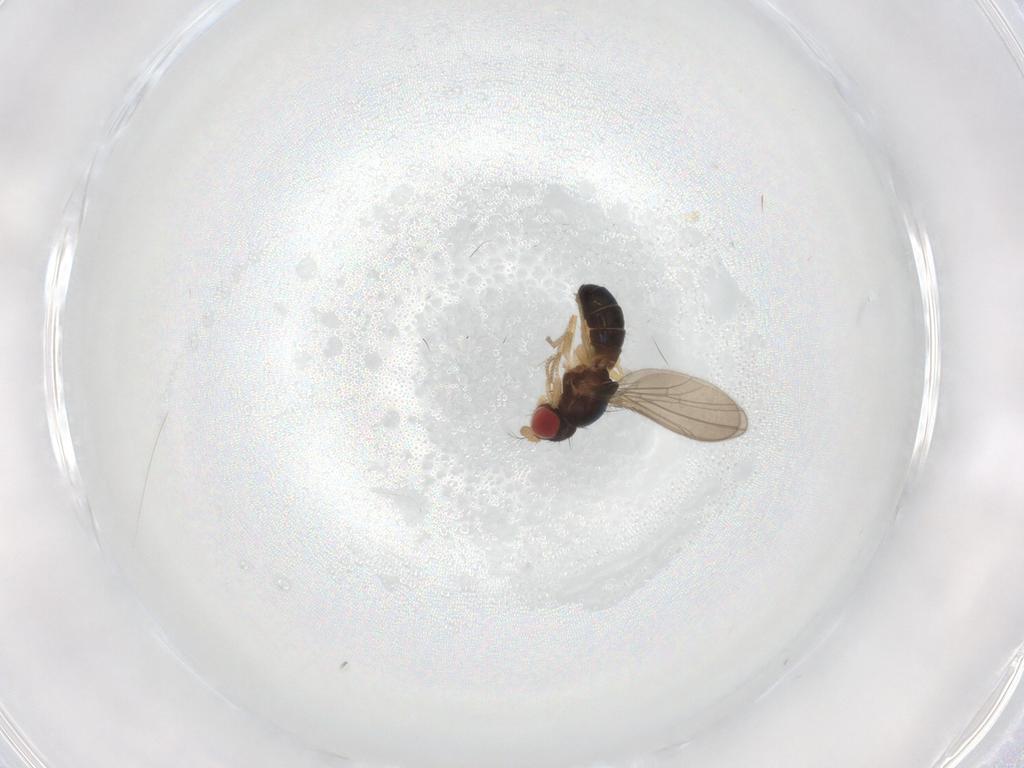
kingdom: Animalia
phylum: Arthropoda
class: Insecta
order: Diptera
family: Drosophilidae
